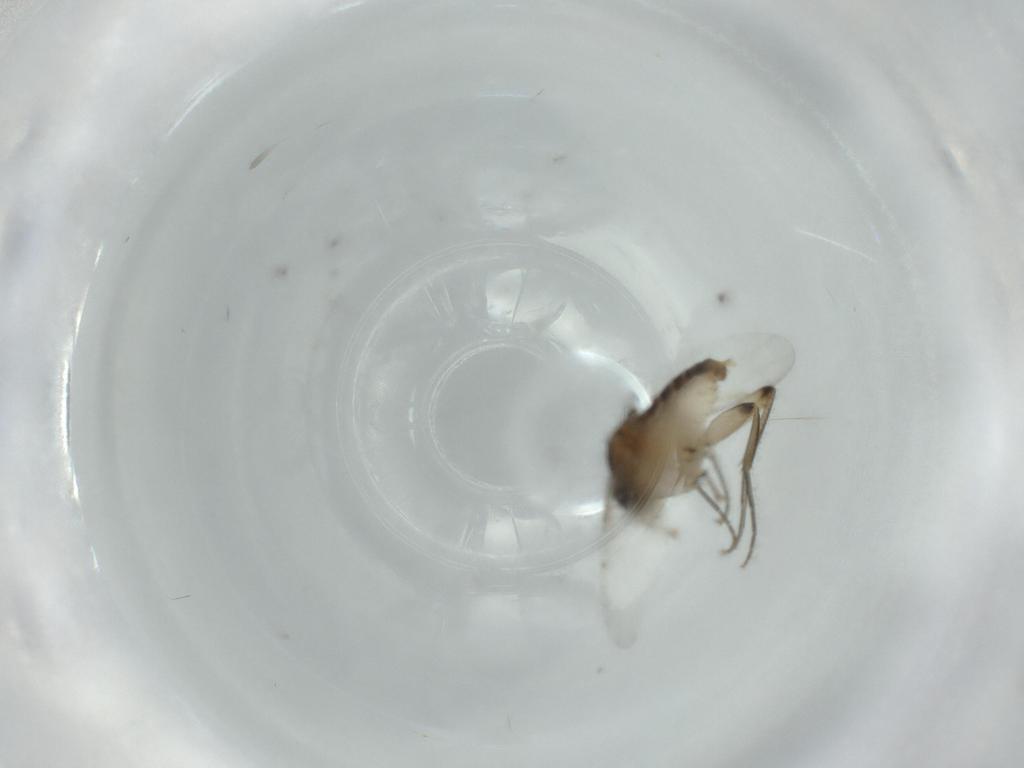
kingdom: Animalia
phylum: Arthropoda
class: Insecta
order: Diptera
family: Phoridae
